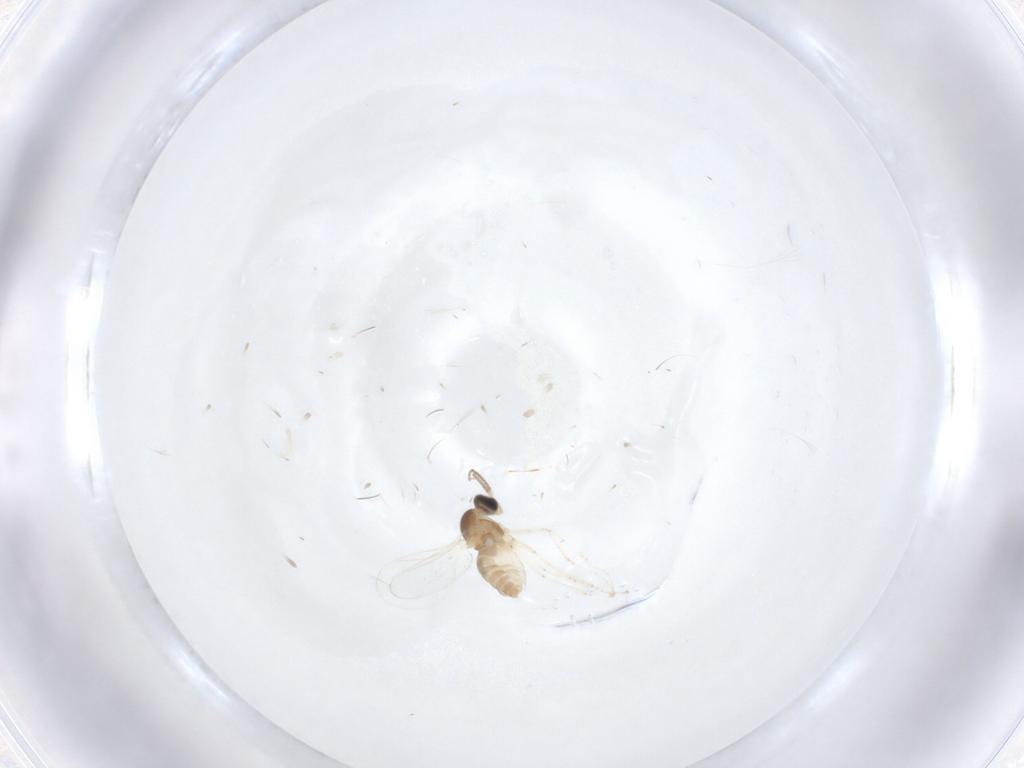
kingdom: Animalia
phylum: Arthropoda
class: Insecta
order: Diptera
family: Cecidomyiidae
